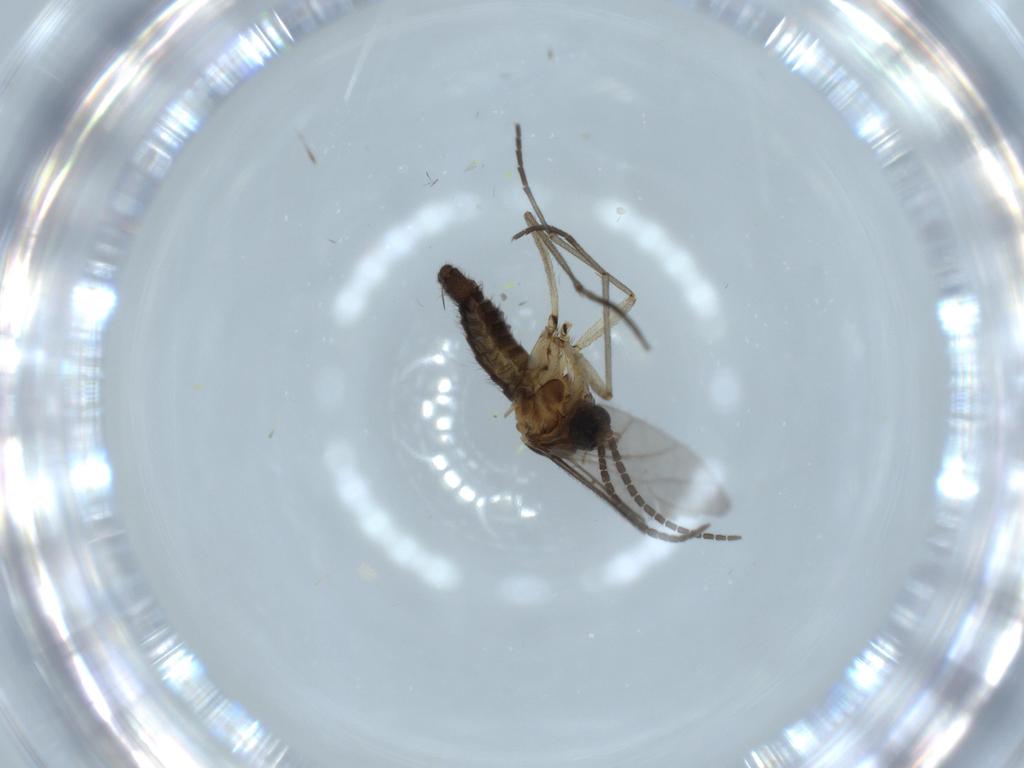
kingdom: Animalia
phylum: Arthropoda
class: Insecta
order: Diptera
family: Sciaridae
